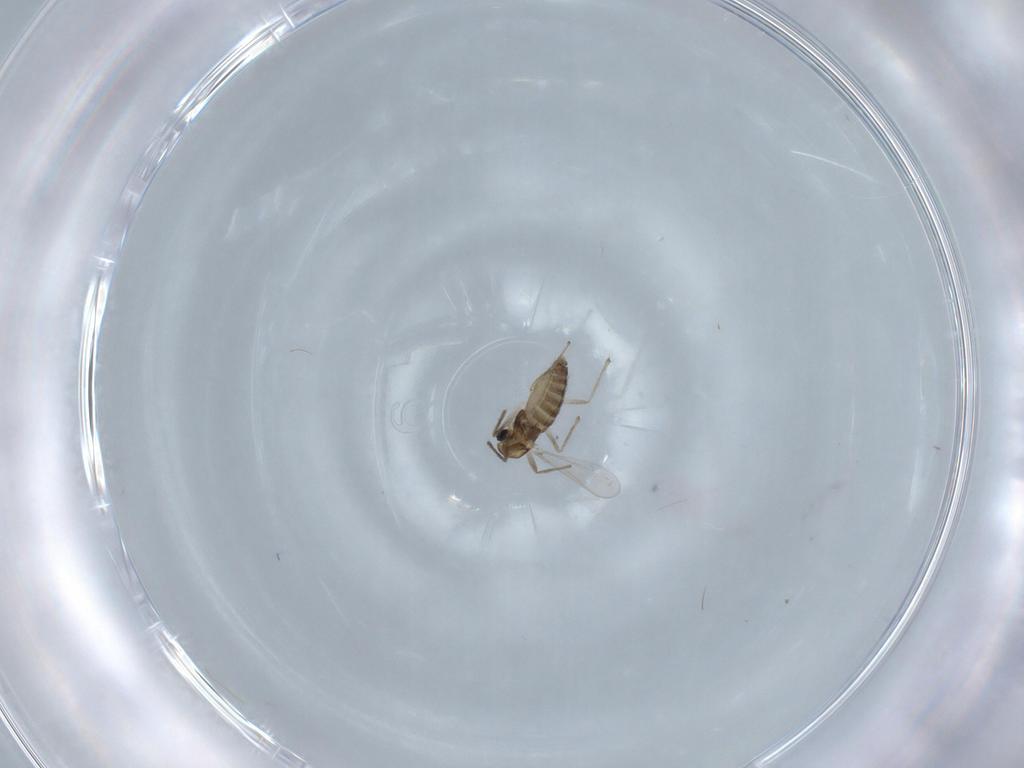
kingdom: Animalia
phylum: Arthropoda
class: Insecta
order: Diptera
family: Chironomidae
